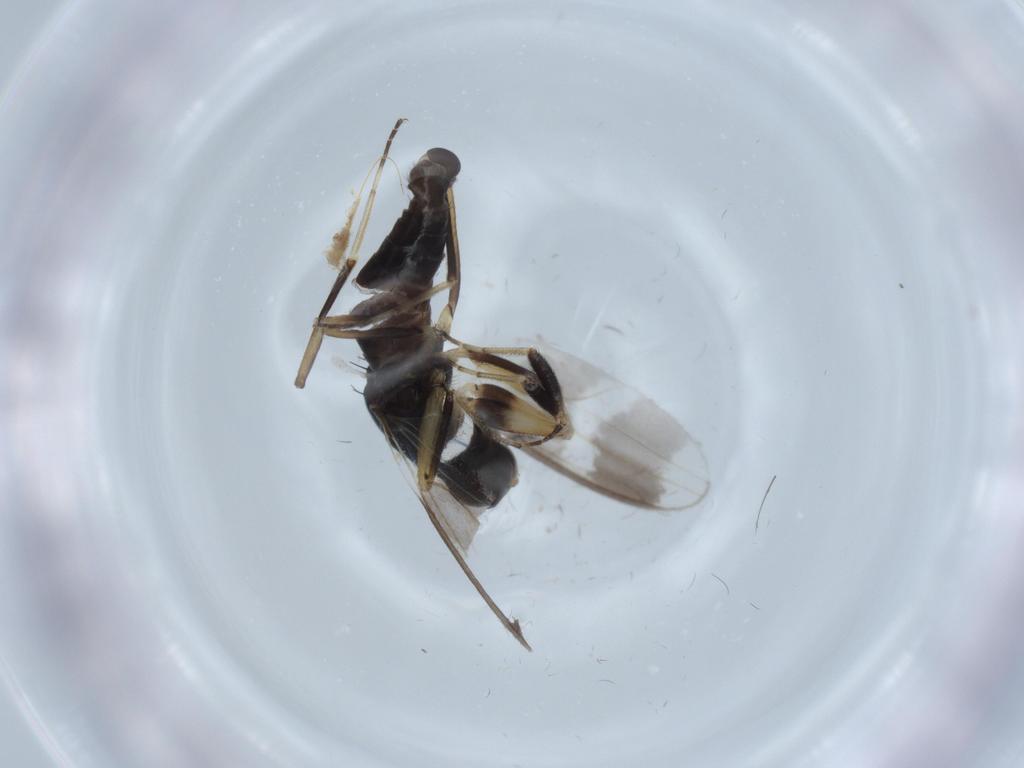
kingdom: Animalia
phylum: Arthropoda
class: Insecta
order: Diptera
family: Hybotidae
